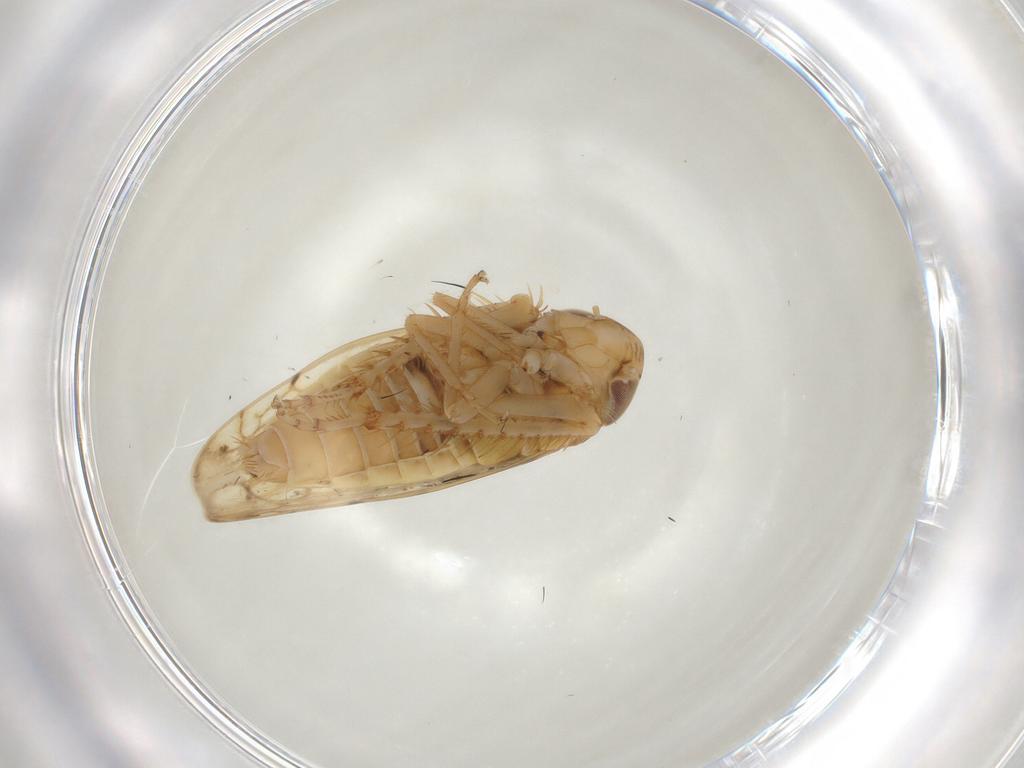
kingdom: Animalia
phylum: Arthropoda
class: Insecta
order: Hemiptera
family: Cicadellidae
